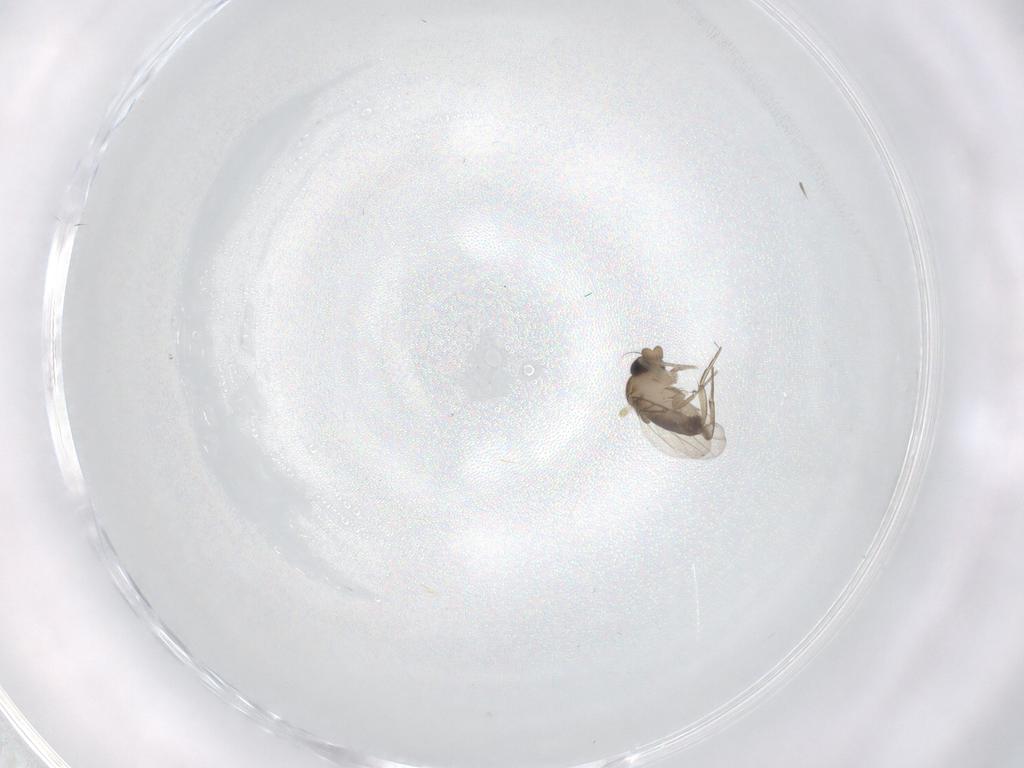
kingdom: Animalia
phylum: Arthropoda
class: Insecta
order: Diptera
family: Phoridae
